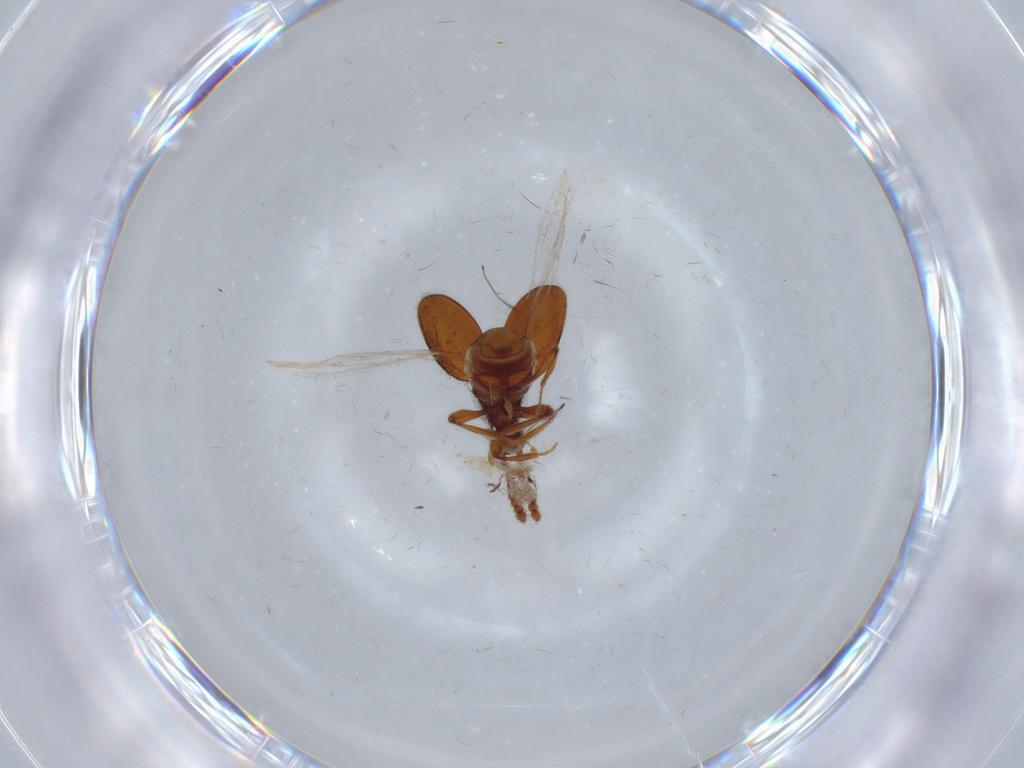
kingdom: Animalia
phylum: Arthropoda
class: Insecta
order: Coleoptera
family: Staphylinidae
